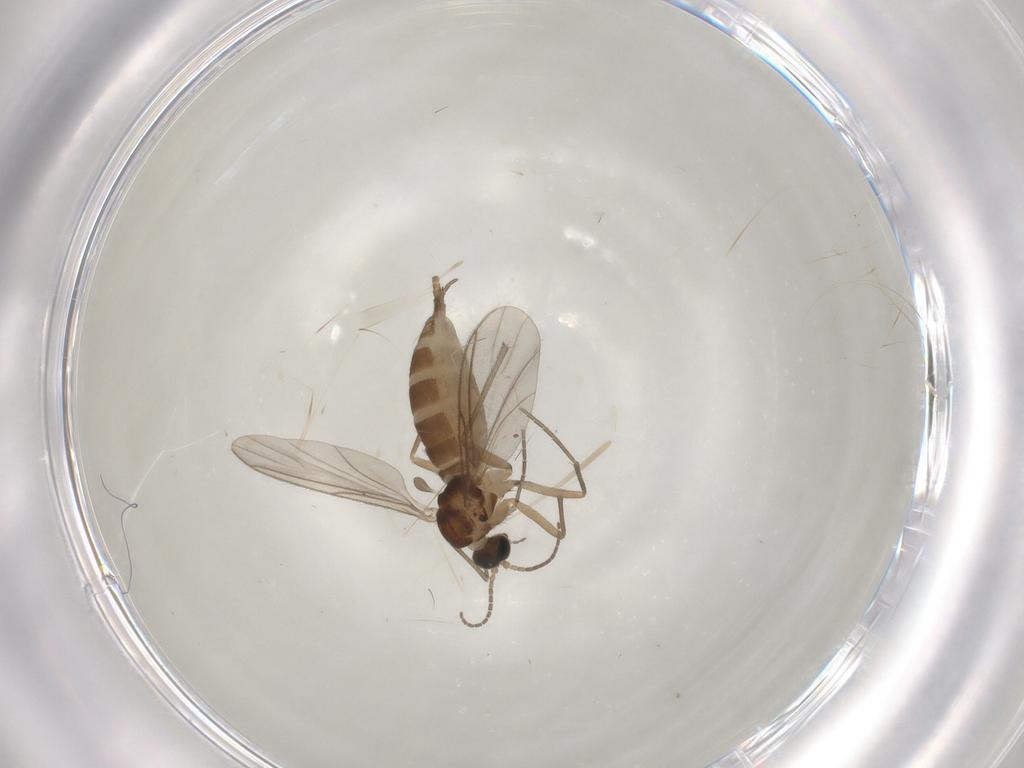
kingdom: Animalia
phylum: Arthropoda
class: Insecta
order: Diptera
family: Sciaridae
